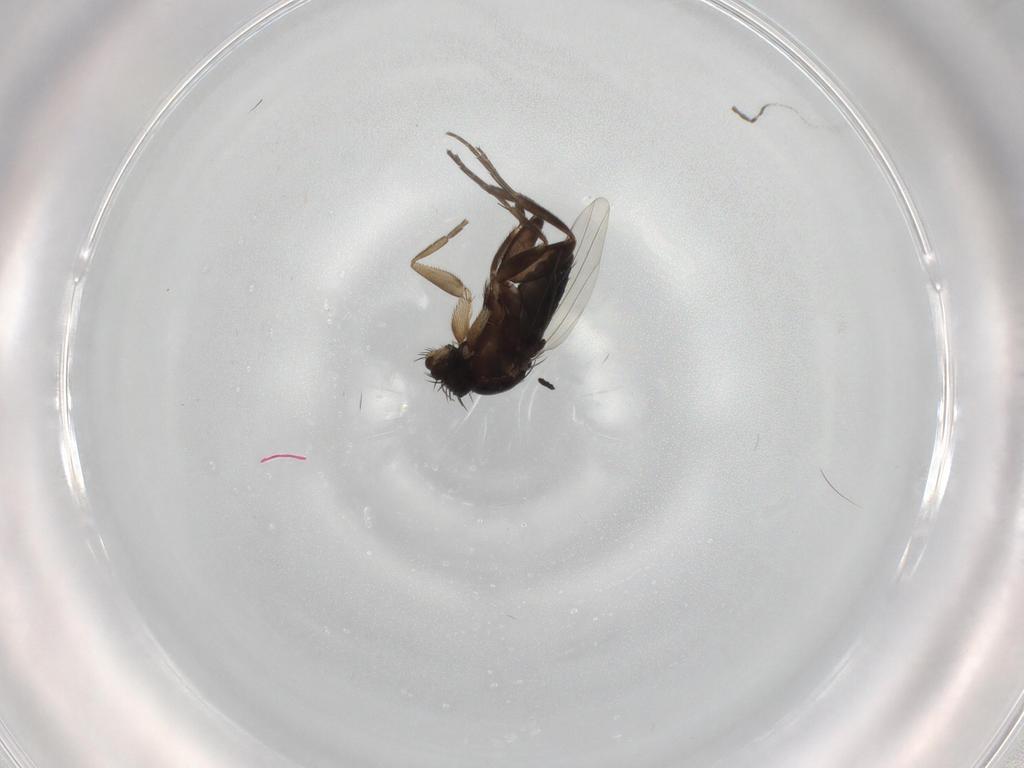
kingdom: Animalia
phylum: Arthropoda
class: Insecta
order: Diptera
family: Phoridae
